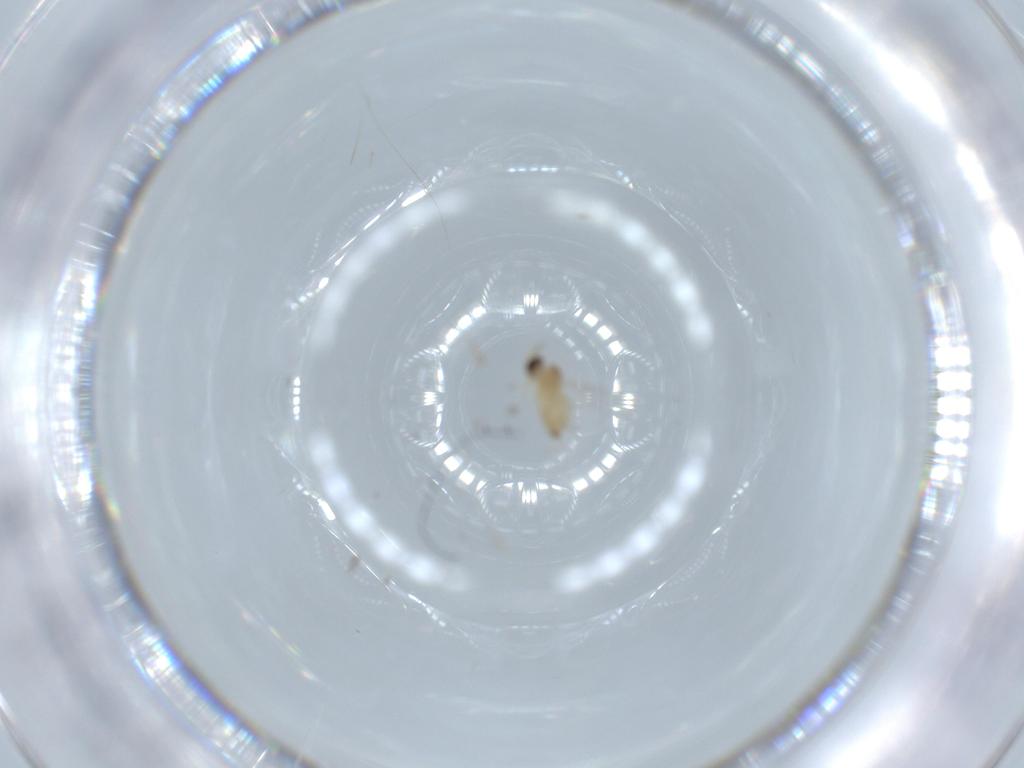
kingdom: Animalia
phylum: Arthropoda
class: Insecta
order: Diptera
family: Cecidomyiidae
